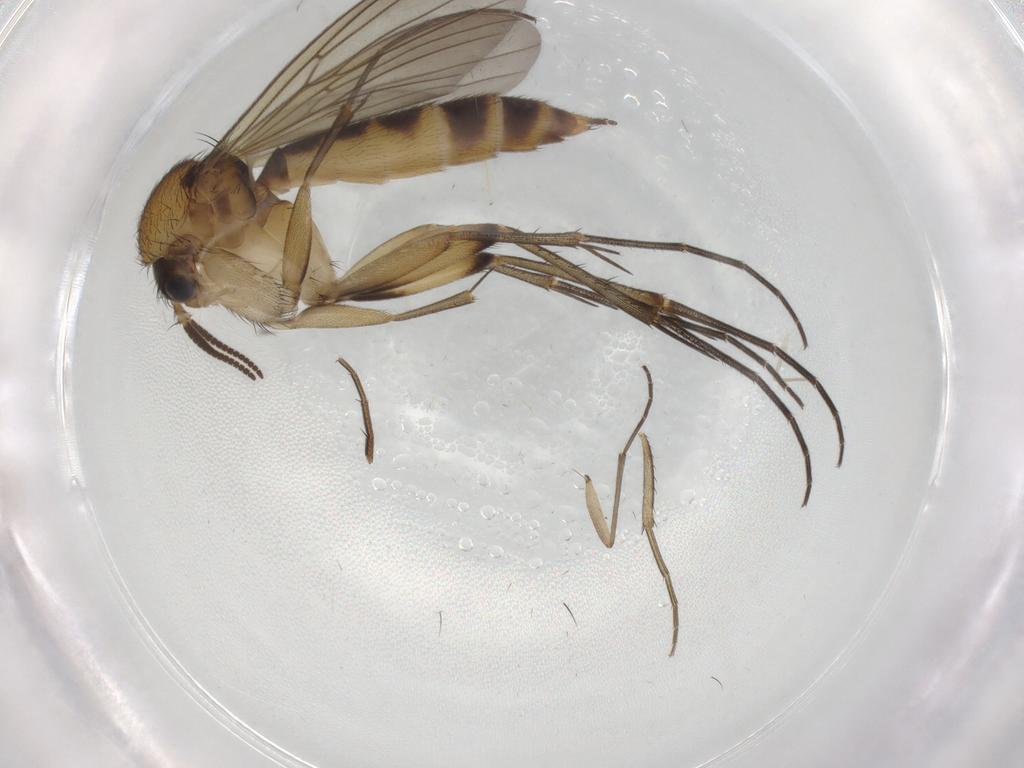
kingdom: Animalia
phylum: Arthropoda
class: Insecta
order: Diptera
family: Mycetophilidae
